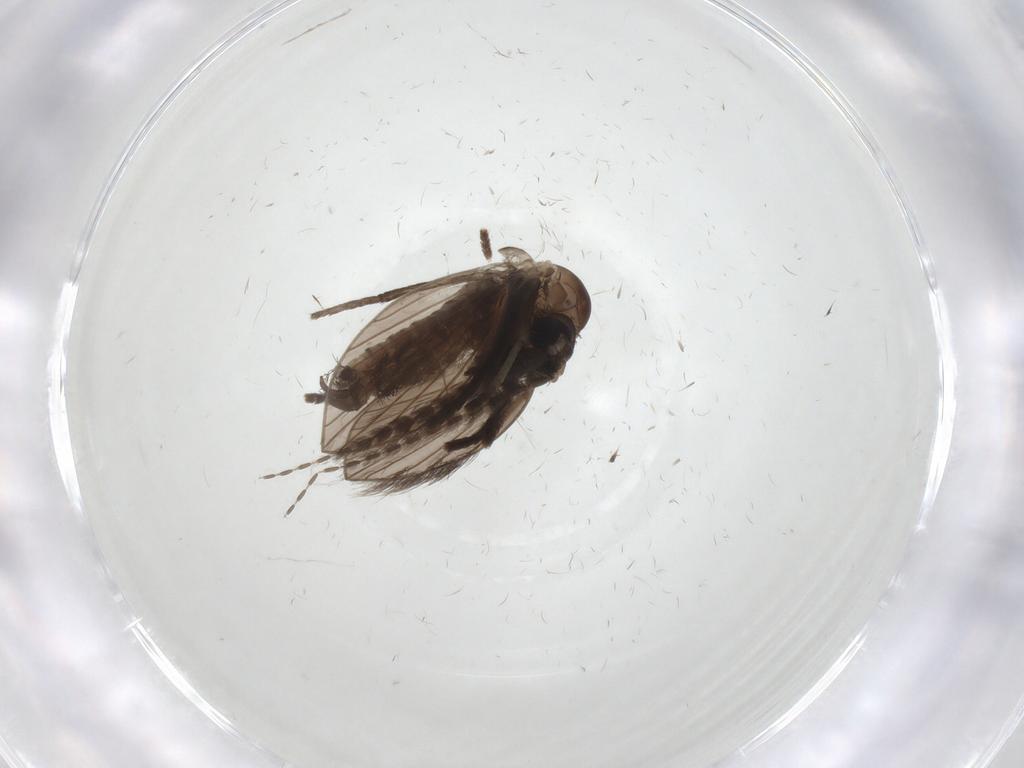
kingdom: Animalia
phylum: Arthropoda
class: Insecta
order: Diptera
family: Psychodidae
